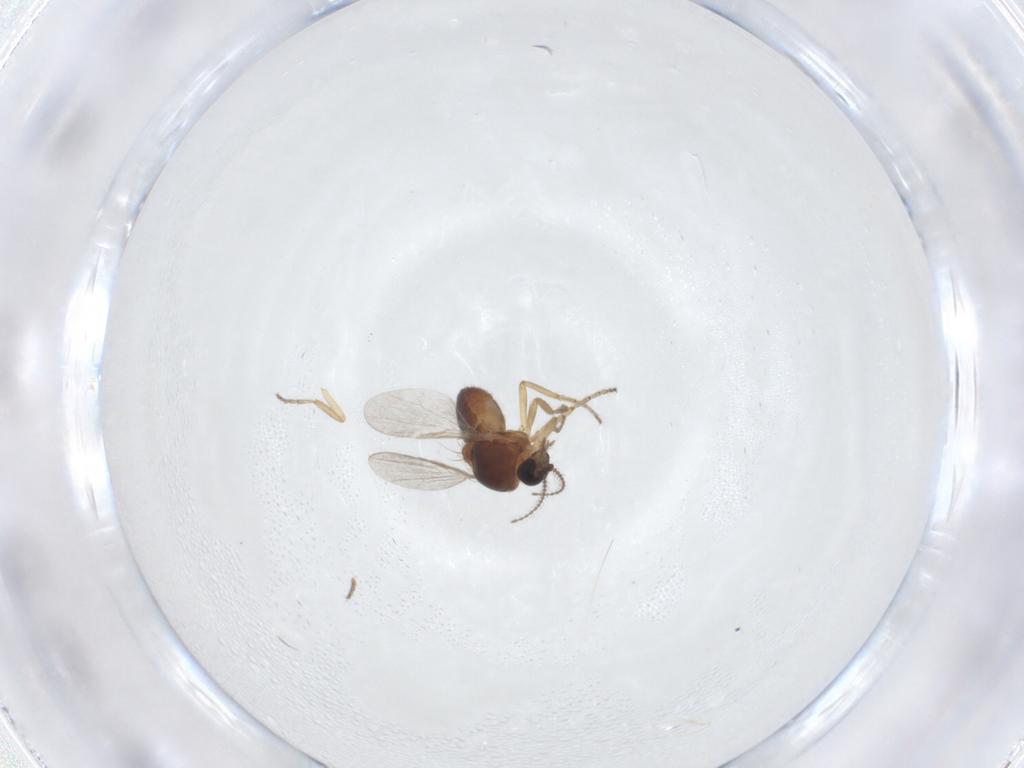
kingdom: Animalia
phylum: Arthropoda
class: Insecta
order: Diptera
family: Ceratopogonidae
